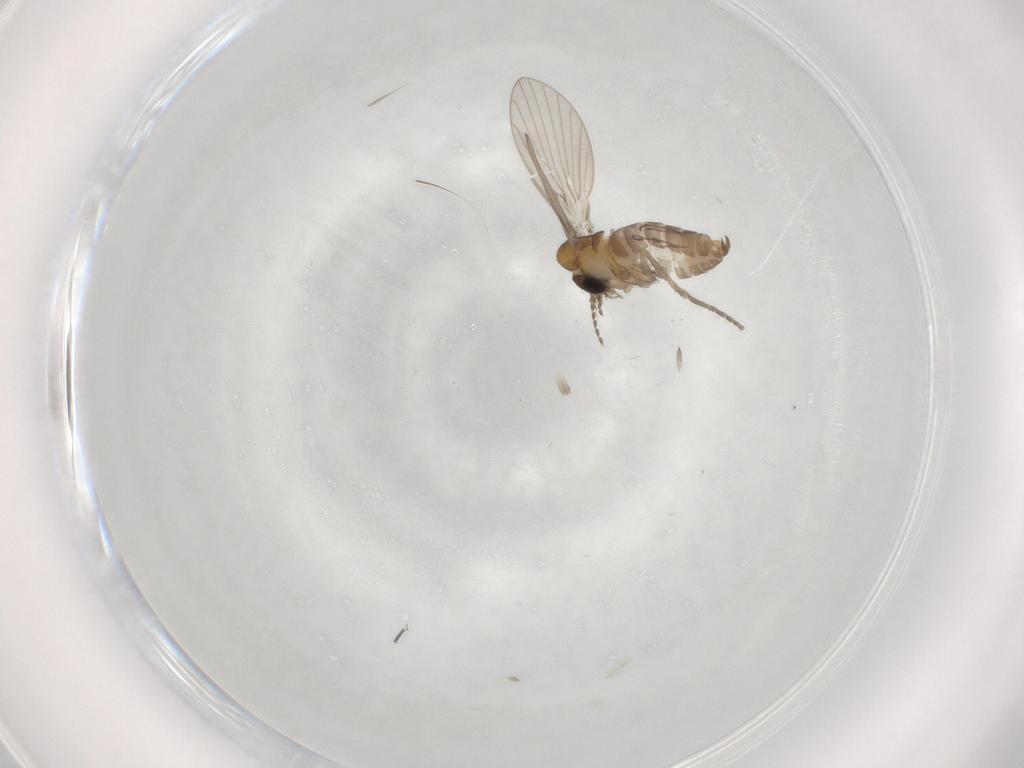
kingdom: Animalia
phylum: Arthropoda
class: Insecta
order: Diptera
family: Psychodidae
